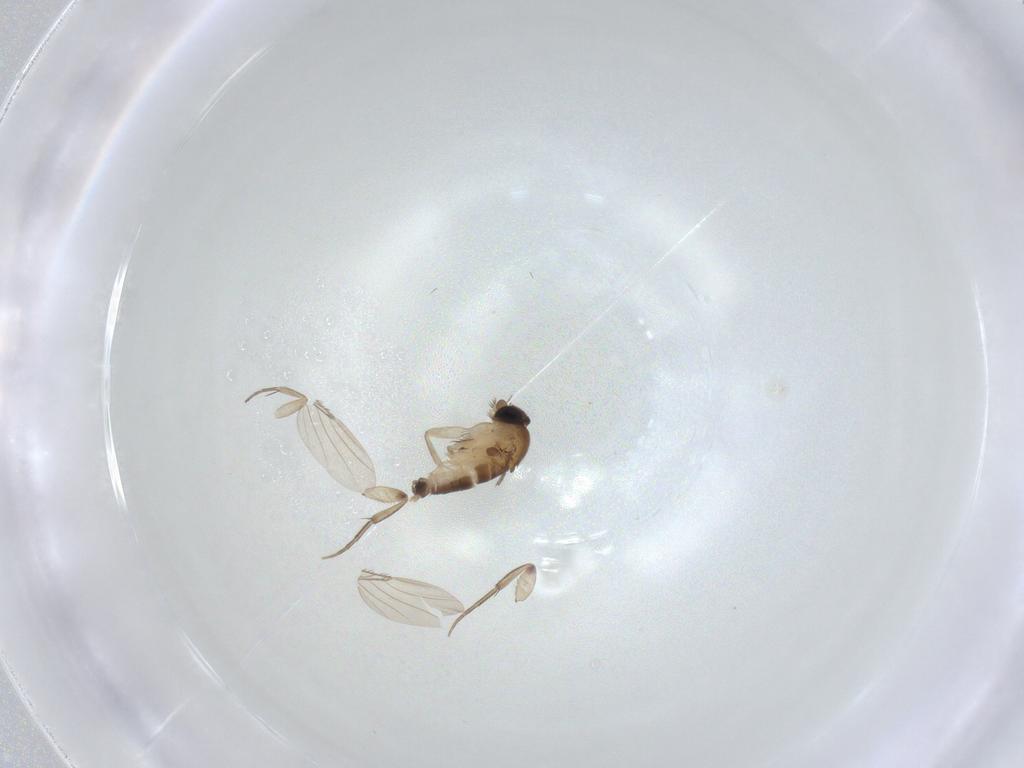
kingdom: Animalia
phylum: Arthropoda
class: Insecta
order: Diptera
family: Phoridae
